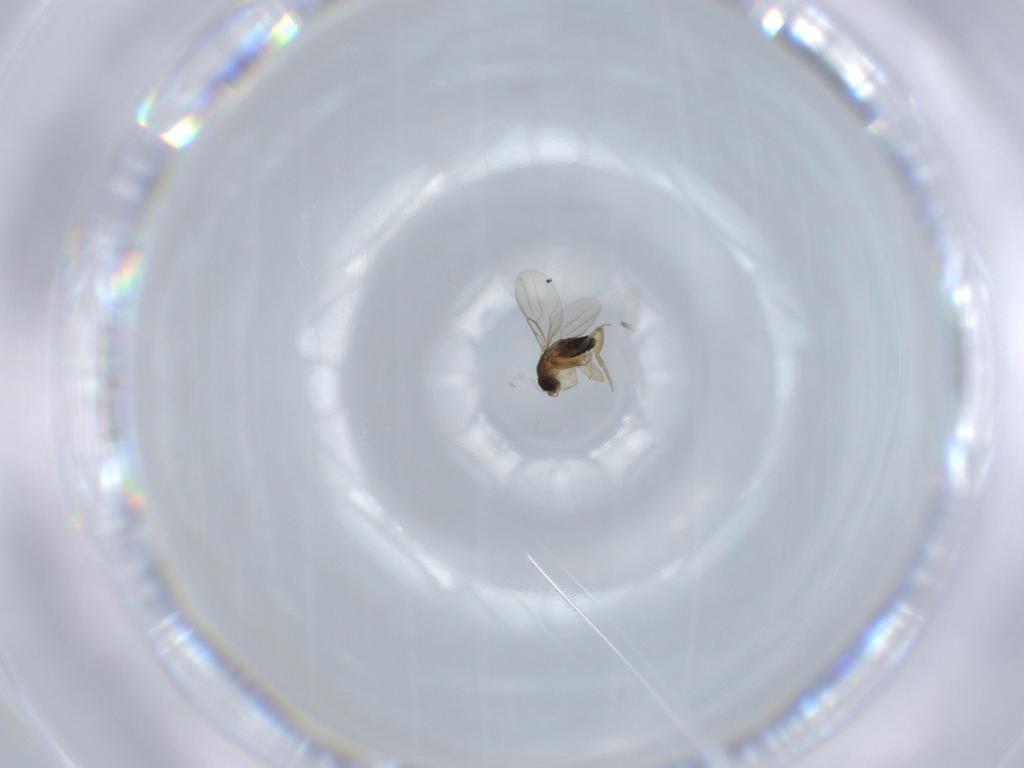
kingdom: Animalia
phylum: Arthropoda
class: Insecta
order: Diptera
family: Phoridae
